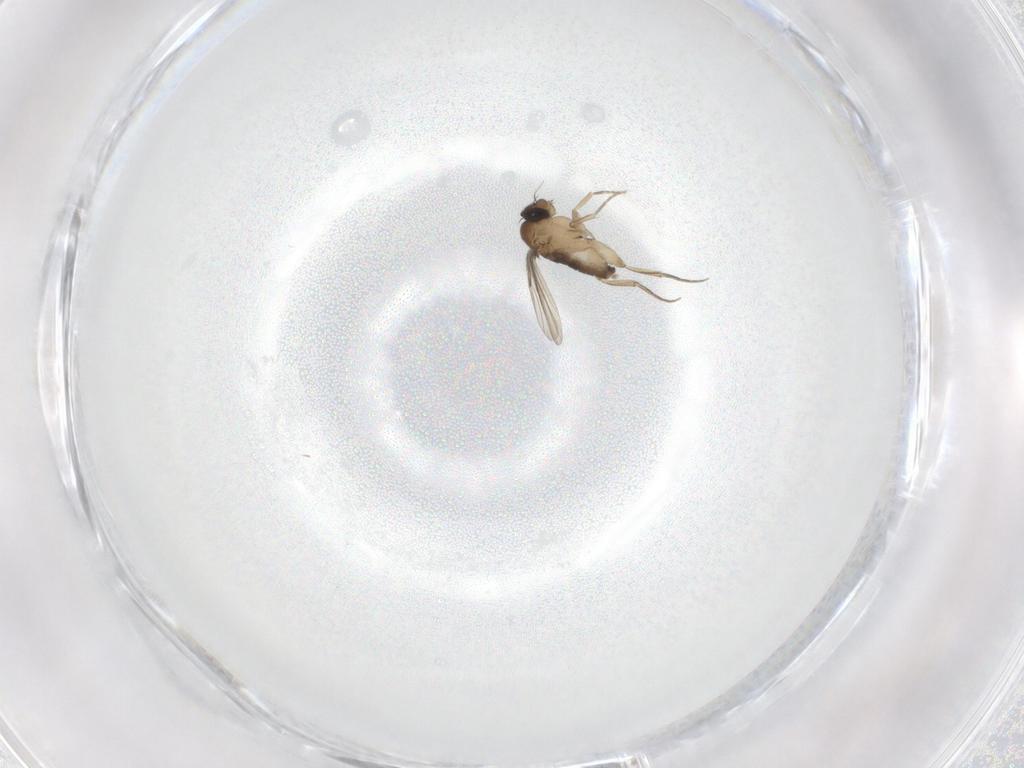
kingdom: Animalia
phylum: Arthropoda
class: Insecta
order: Diptera
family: Phoridae
